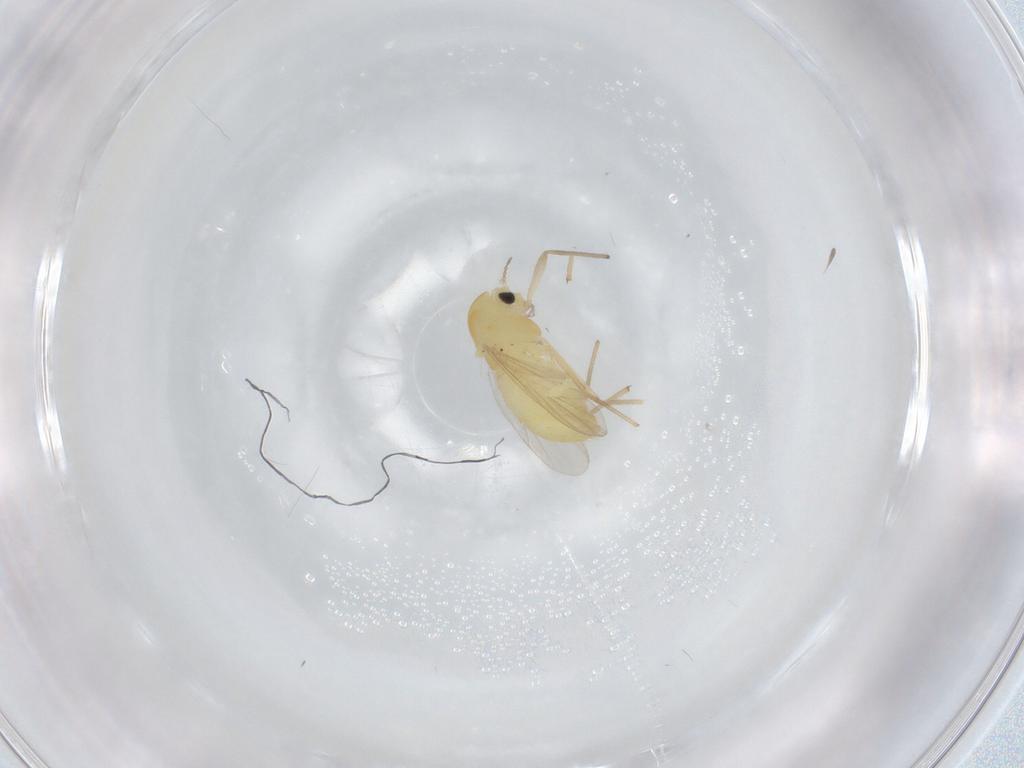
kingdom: Animalia
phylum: Arthropoda
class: Insecta
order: Diptera
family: Chironomidae
